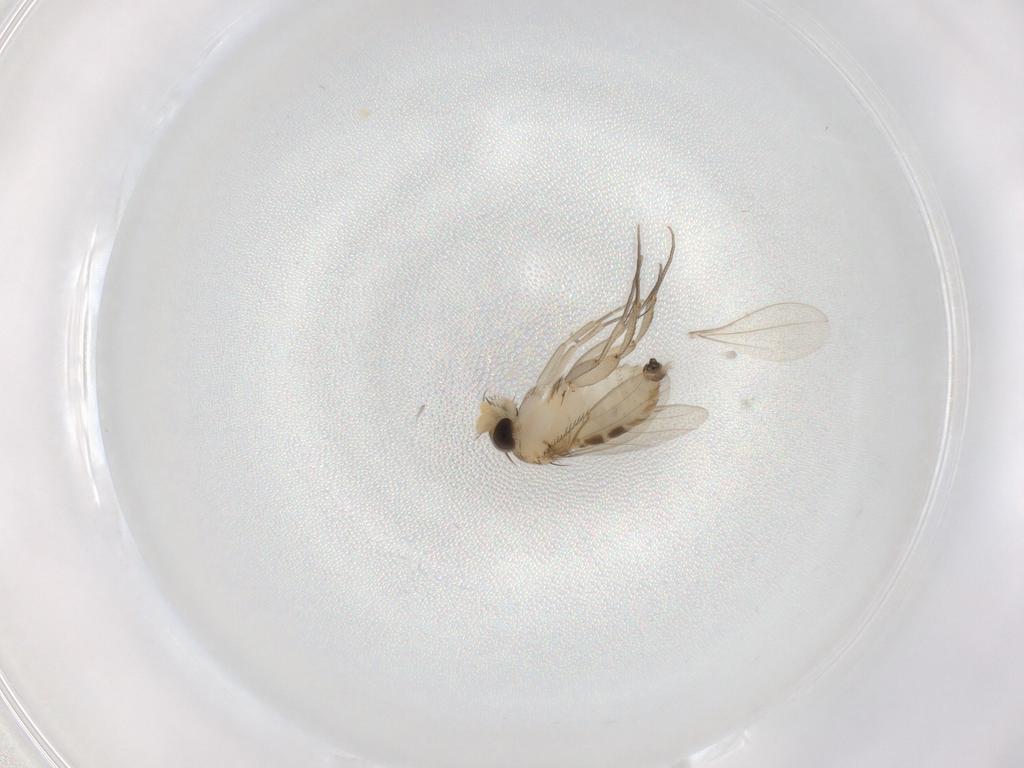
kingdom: Animalia
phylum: Arthropoda
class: Insecta
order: Diptera
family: Phoridae
